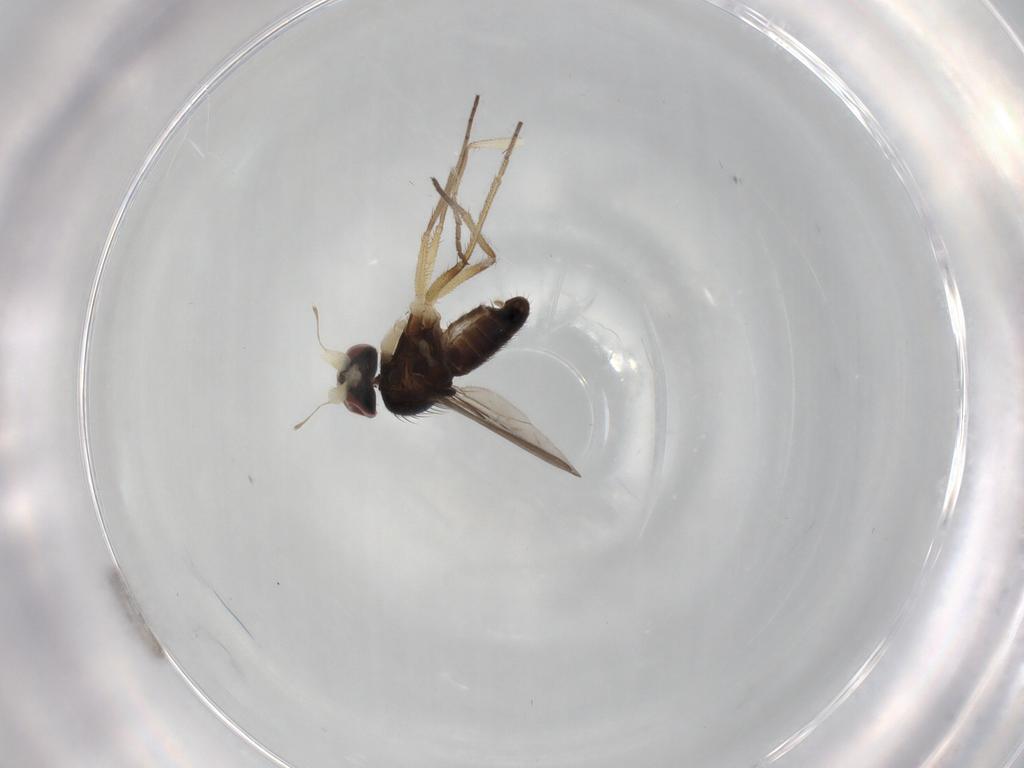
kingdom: Animalia
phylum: Arthropoda
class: Insecta
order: Diptera
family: Dolichopodidae
